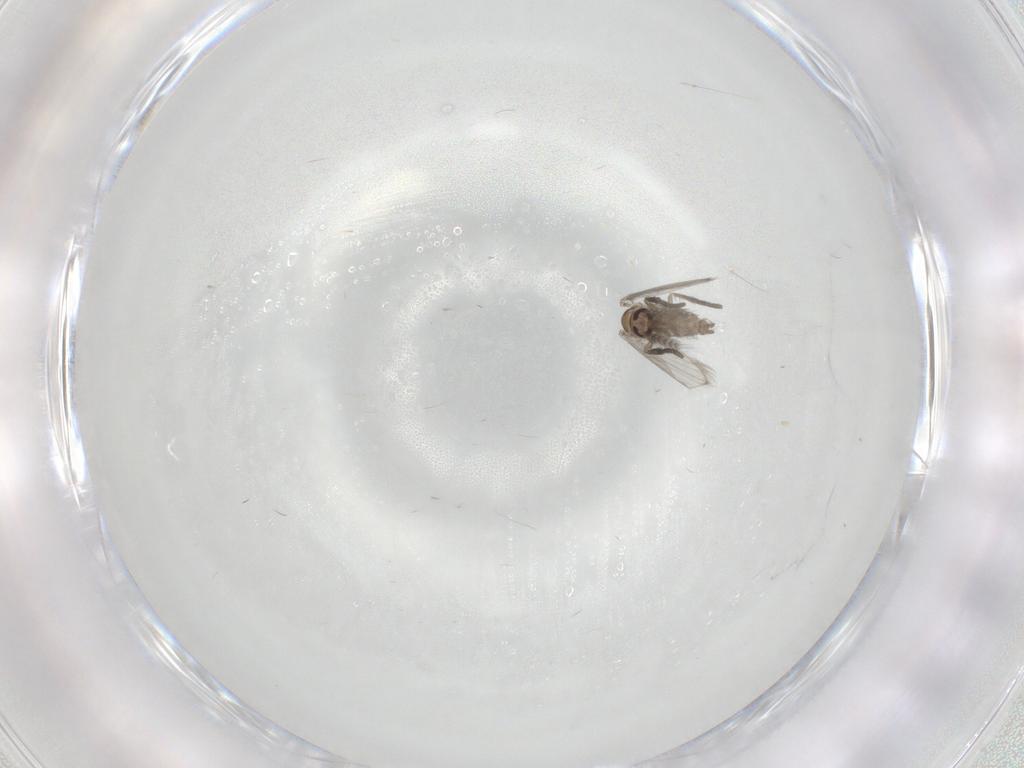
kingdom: Animalia
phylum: Arthropoda
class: Insecta
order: Diptera
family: Psychodidae
